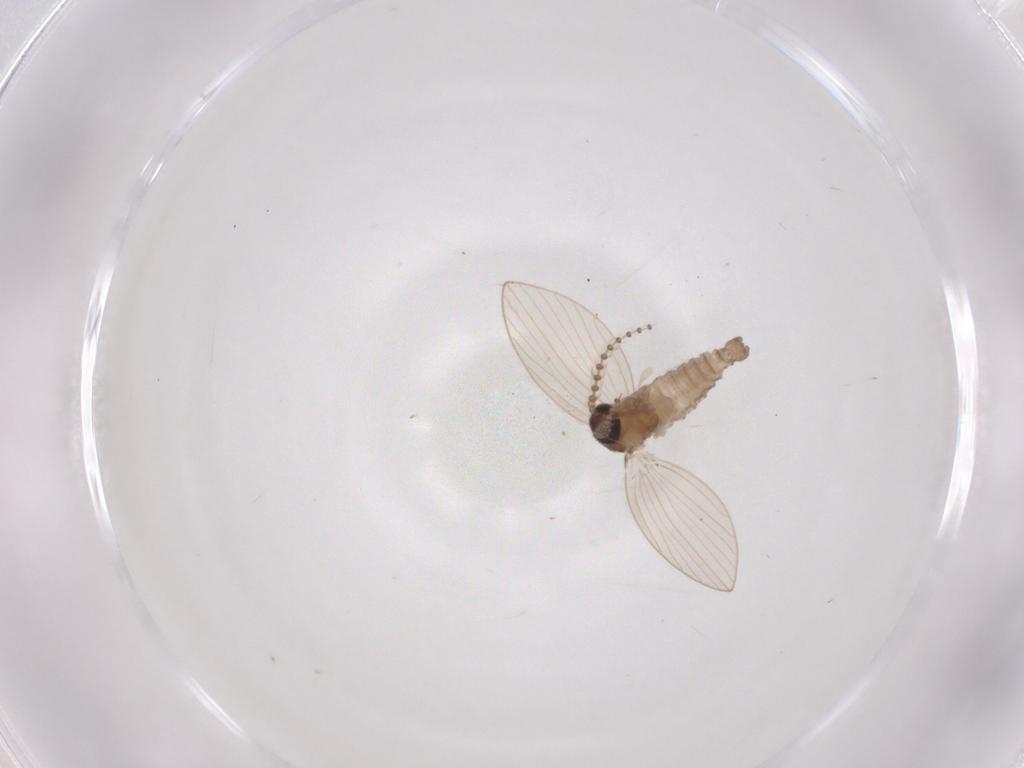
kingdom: Animalia
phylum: Arthropoda
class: Insecta
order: Diptera
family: Psychodidae
